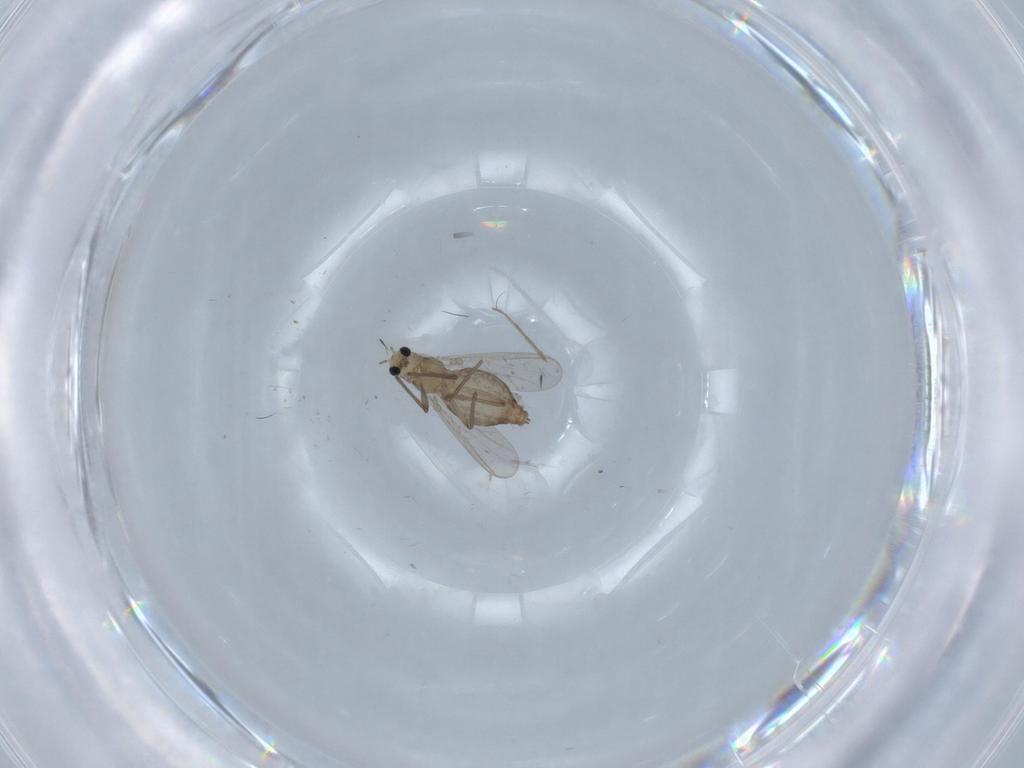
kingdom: Animalia
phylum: Arthropoda
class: Insecta
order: Diptera
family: Chironomidae
